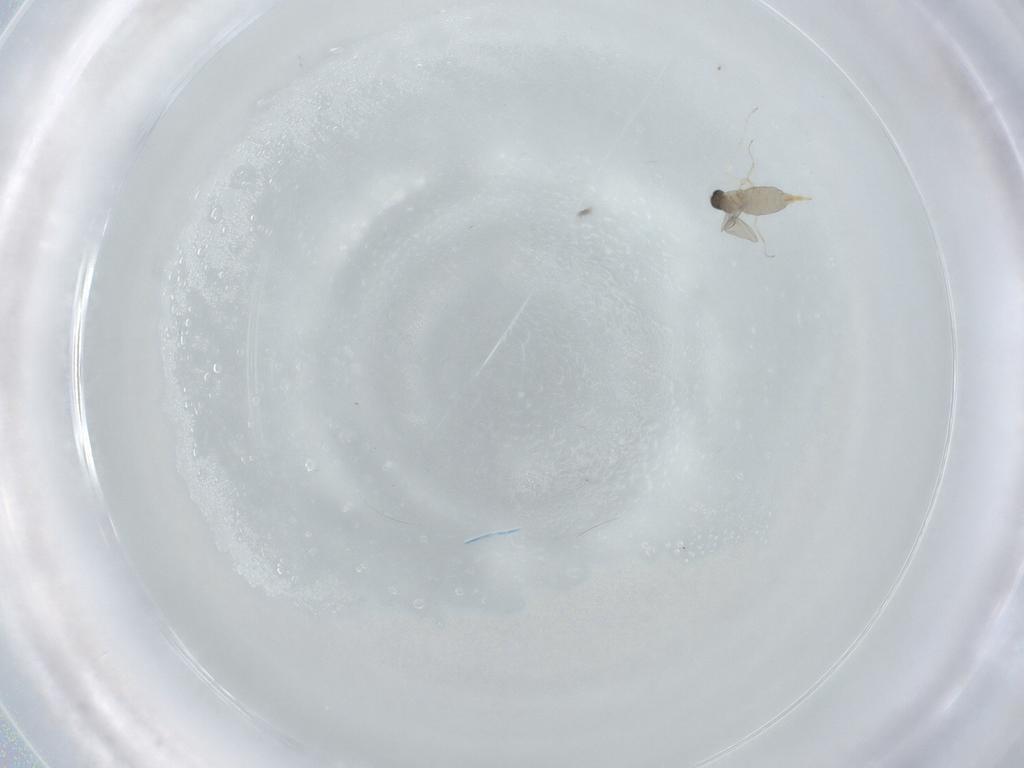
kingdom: Animalia
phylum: Arthropoda
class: Insecta
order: Diptera
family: Cecidomyiidae
